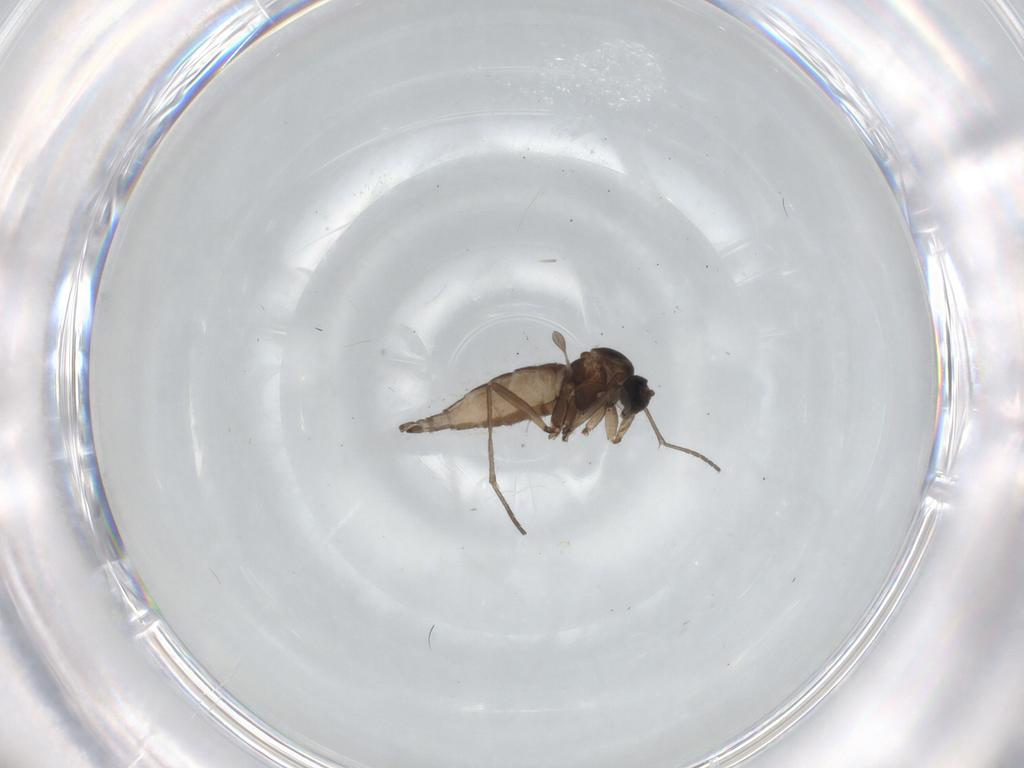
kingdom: Animalia
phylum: Arthropoda
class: Insecta
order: Diptera
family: Sciaridae
